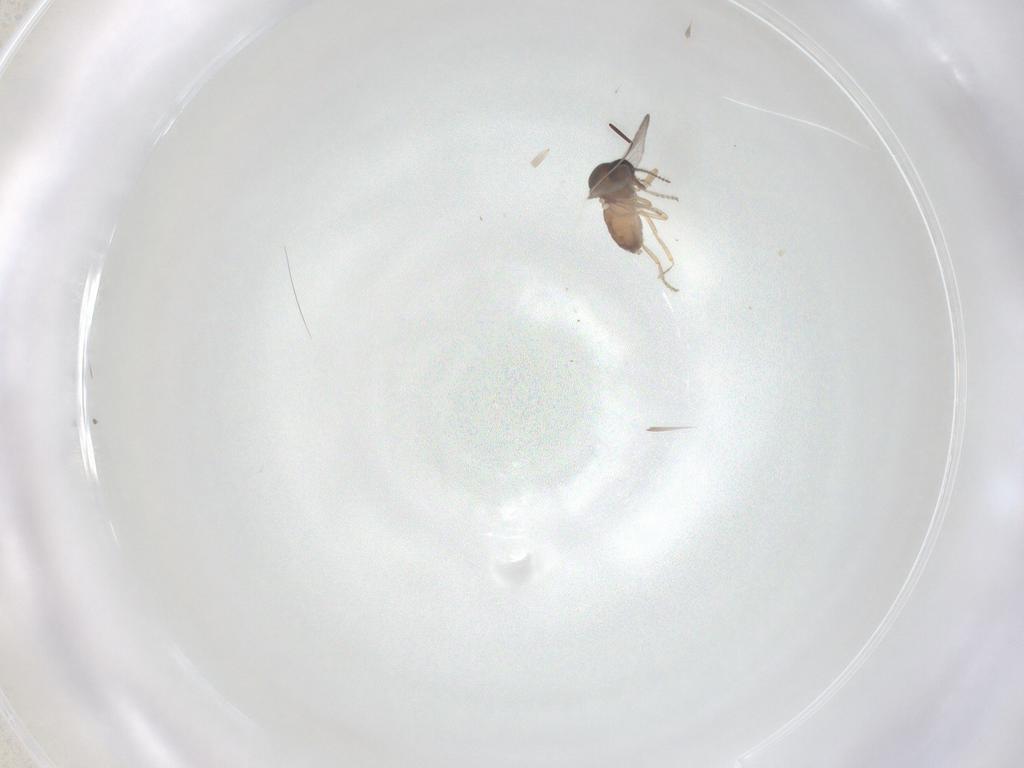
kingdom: Animalia
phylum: Arthropoda
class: Insecta
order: Diptera
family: Ceratopogonidae
